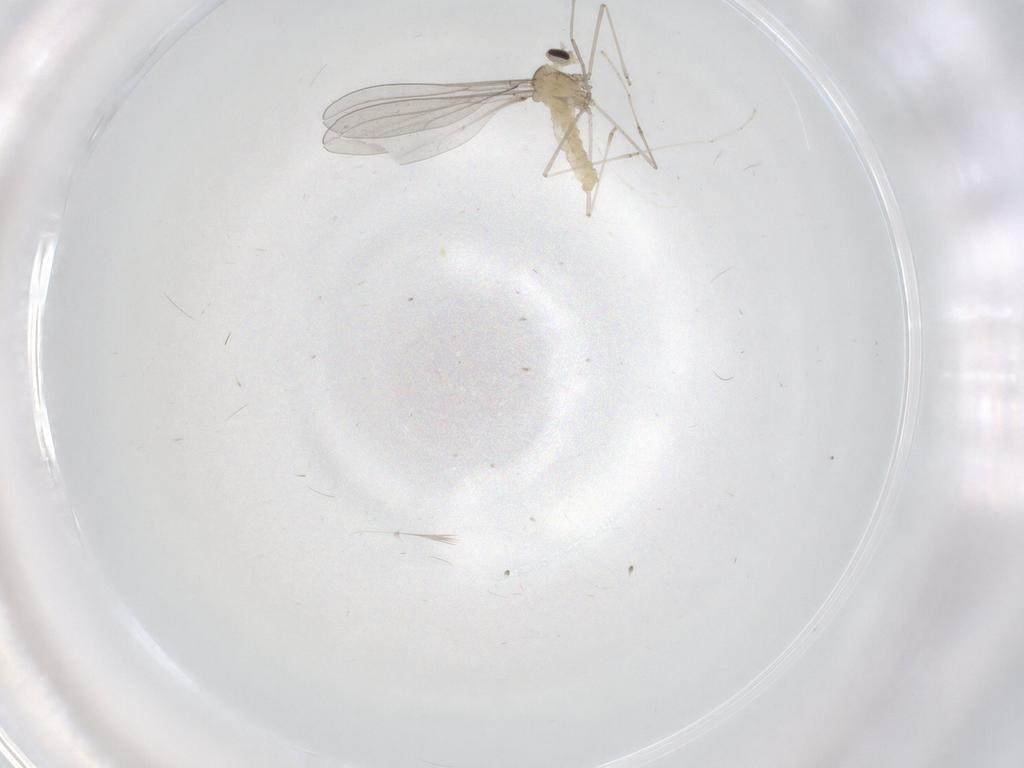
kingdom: Animalia
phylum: Arthropoda
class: Insecta
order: Diptera
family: Cecidomyiidae
